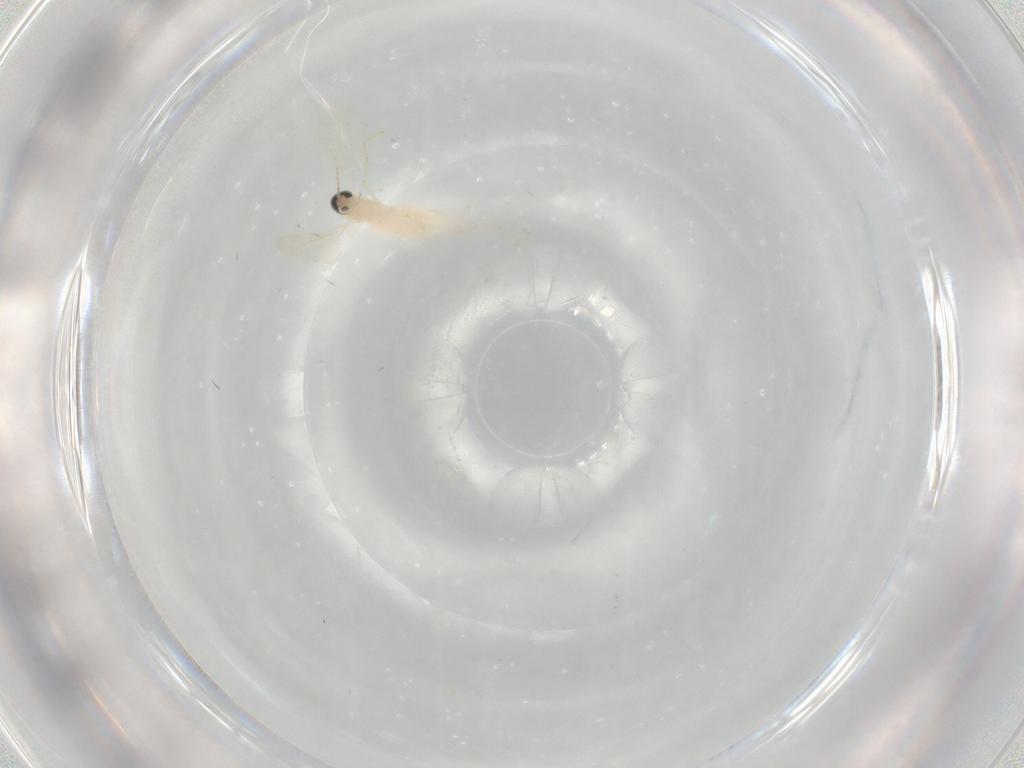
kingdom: Animalia
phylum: Arthropoda
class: Insecta
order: Diptera
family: Cecidomyiidae
